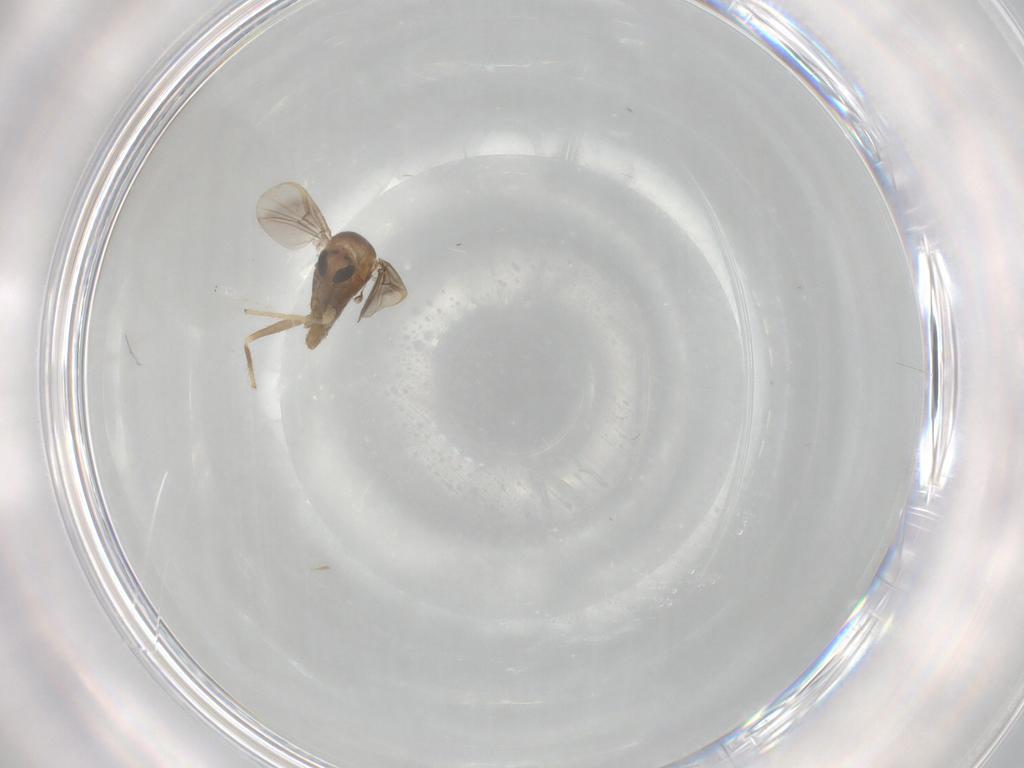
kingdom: Animalia
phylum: Arthropoda
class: Insecta
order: Diptera
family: Chironomidae
